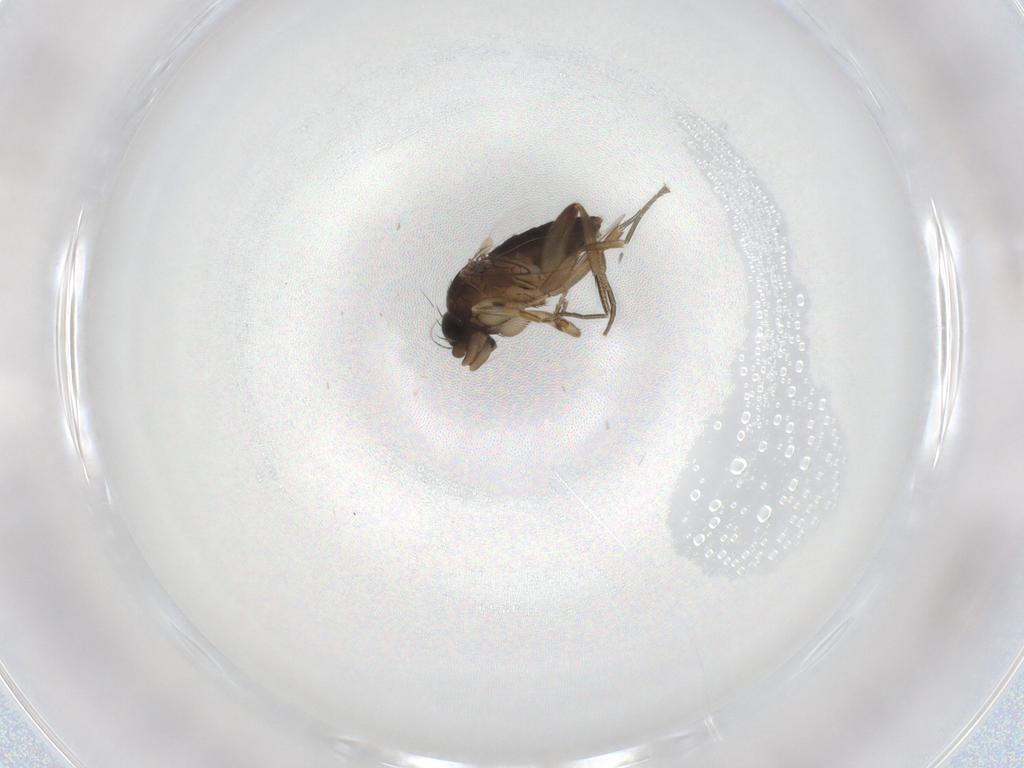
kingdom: Animalia
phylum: Arthropoda
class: Insecta
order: Diptera
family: Phoridae
